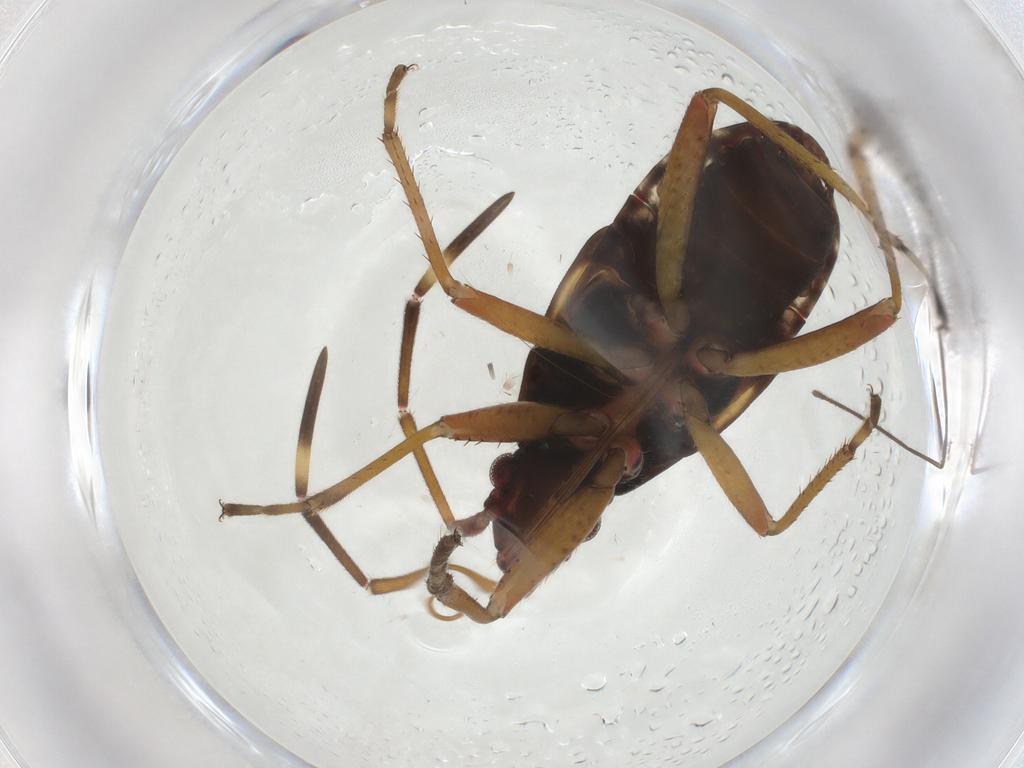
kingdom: Animalia
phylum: Arthropoda
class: Insecta
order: Hemiptera
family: Rhyparochromidae
